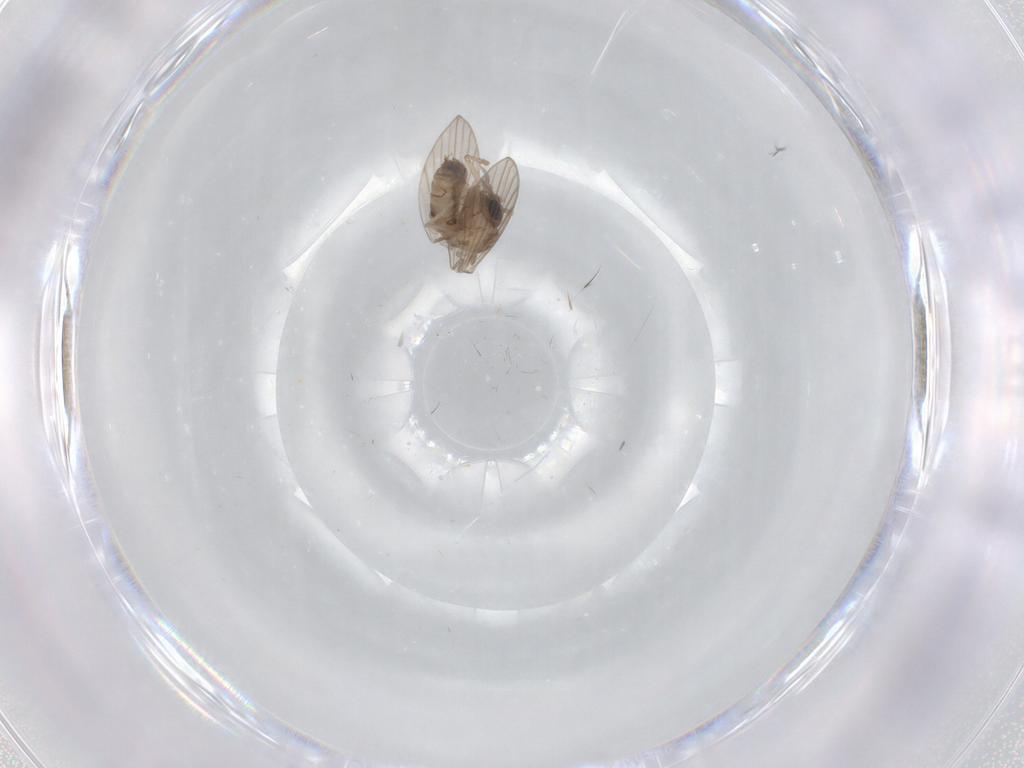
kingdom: Animalia
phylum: Arthropoda
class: Insecta
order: Diptera
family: Psychodidae
